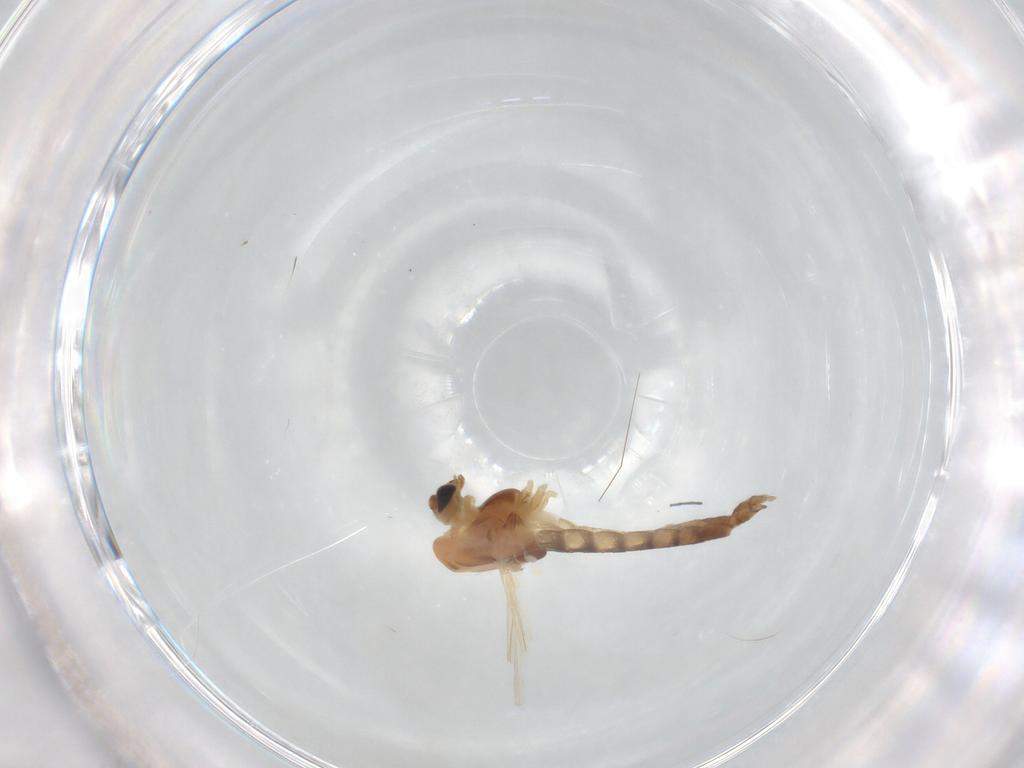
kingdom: Animalia
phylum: Arthropoda
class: Insecta
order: Diptera
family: Chironomidae
